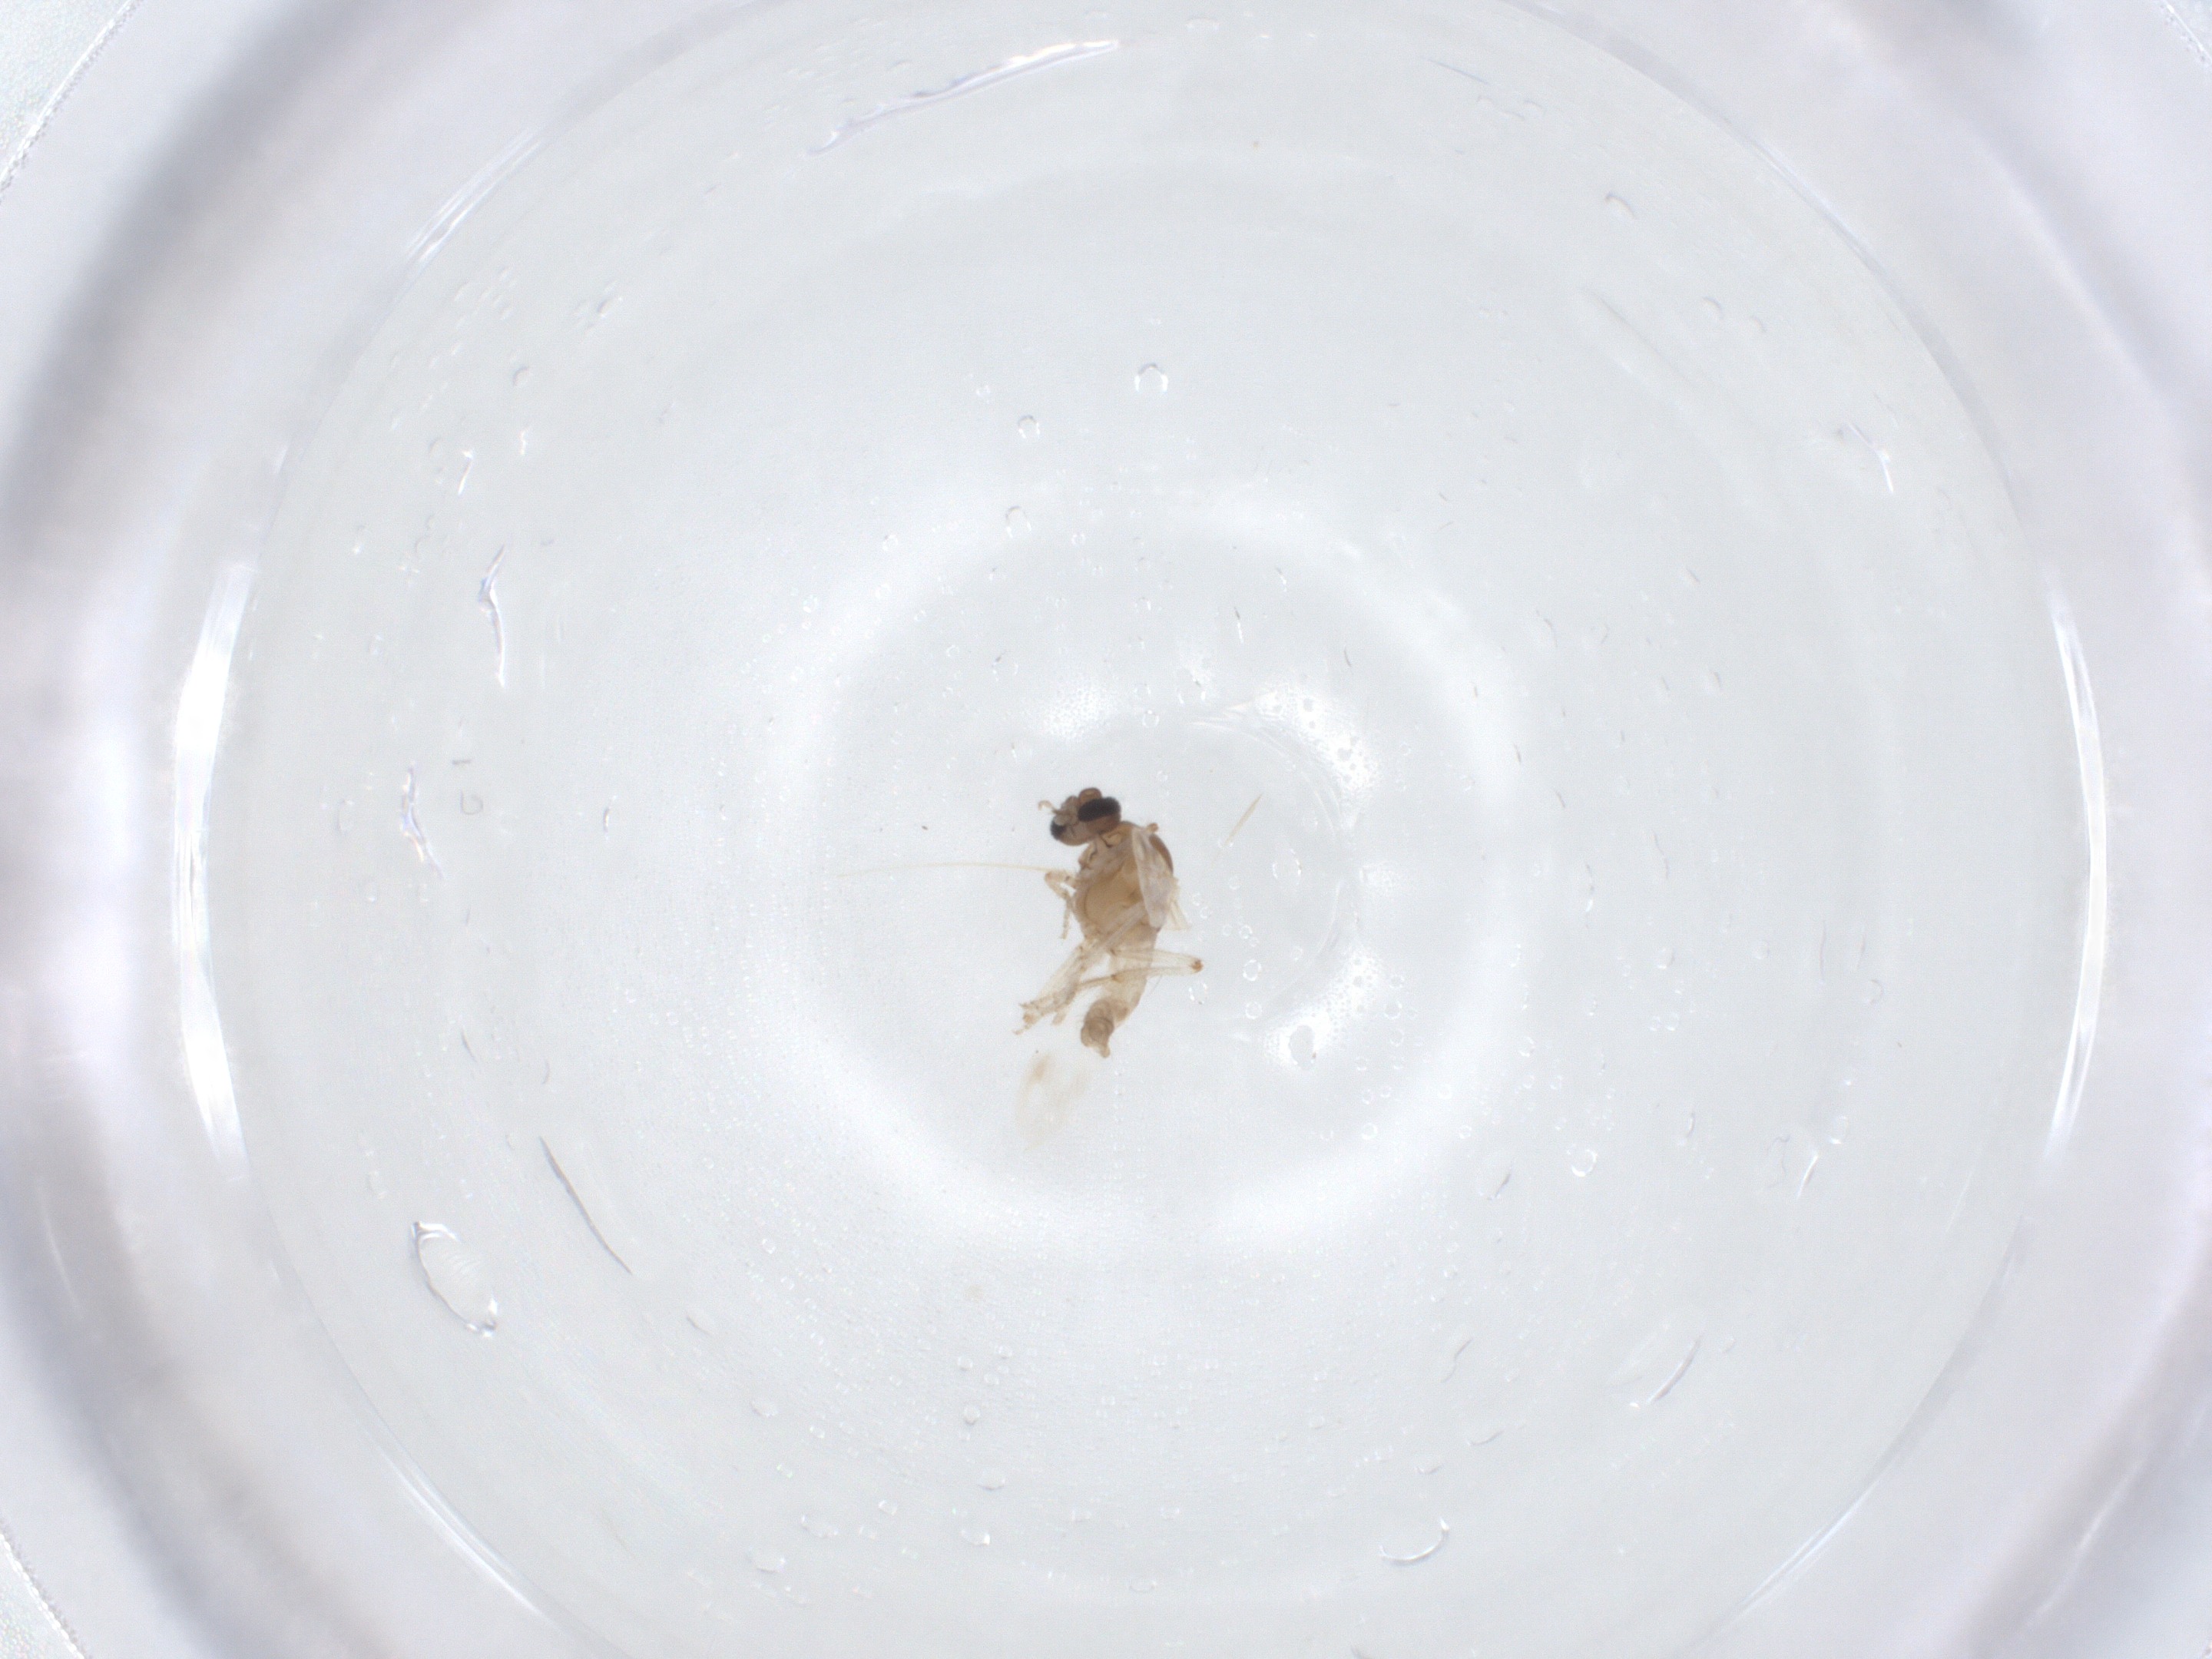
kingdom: Animalia
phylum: Arthropoda
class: Insecta
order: Diptera
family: Ceratopogonidae
